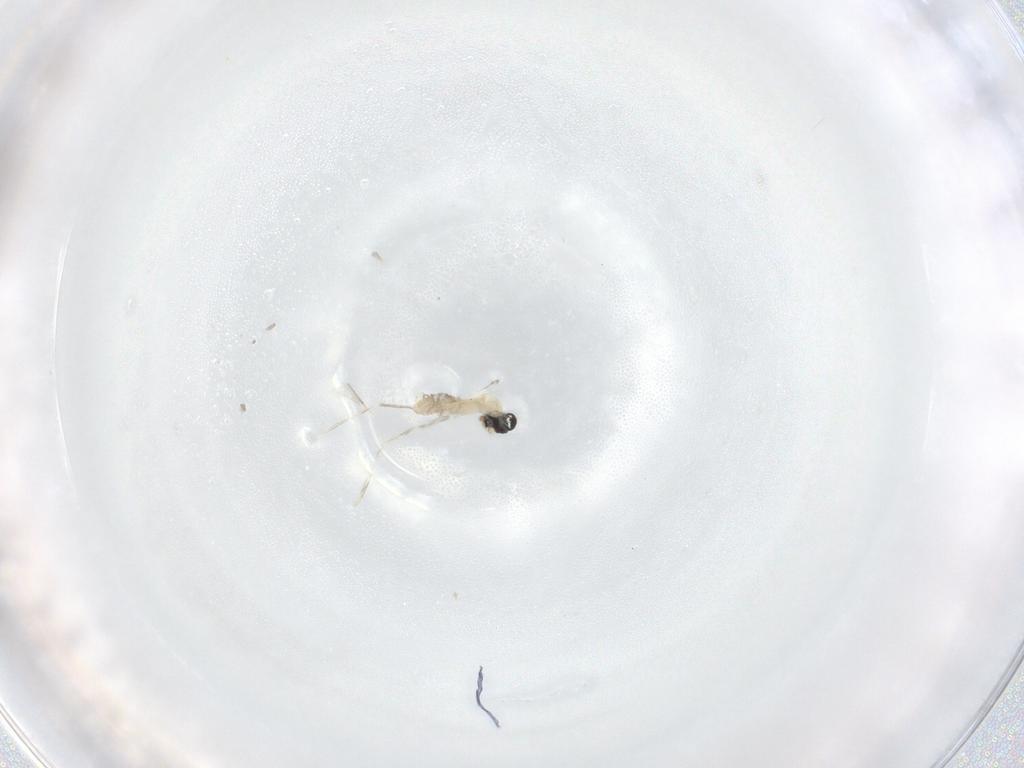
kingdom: Animalia
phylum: Arthropoda
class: Insecta
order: Diptera
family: Cecidomyiidae
